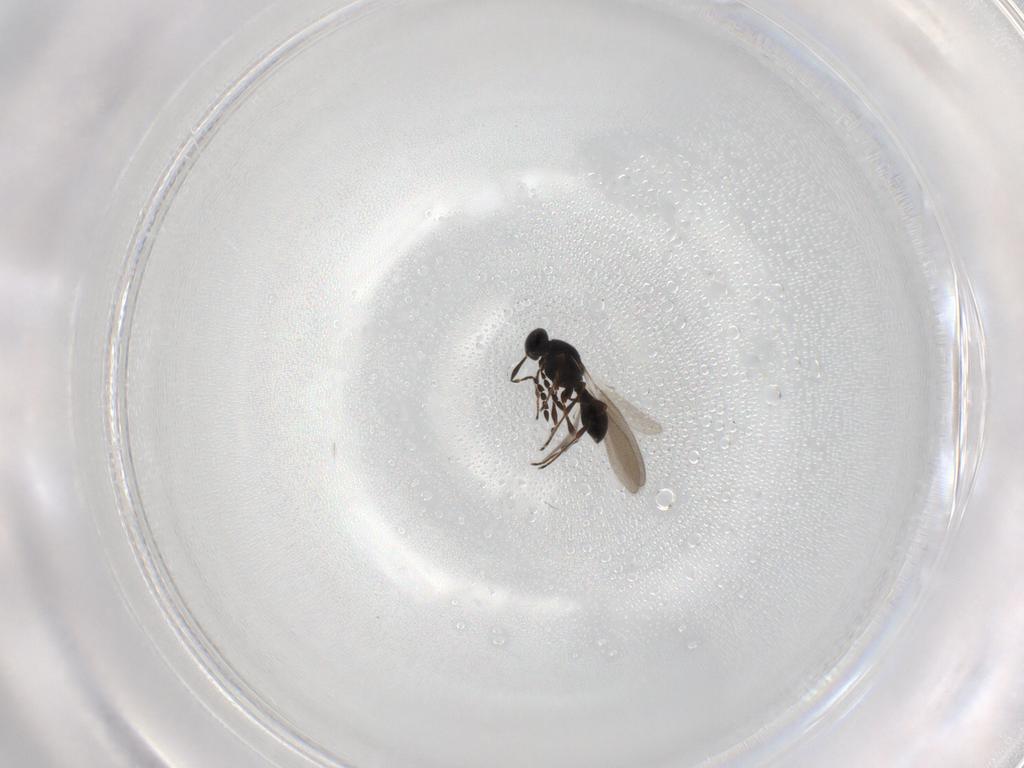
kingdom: Animalia
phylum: Arthropoda
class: Insecta
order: Hymenoptera
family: Platygastridae
